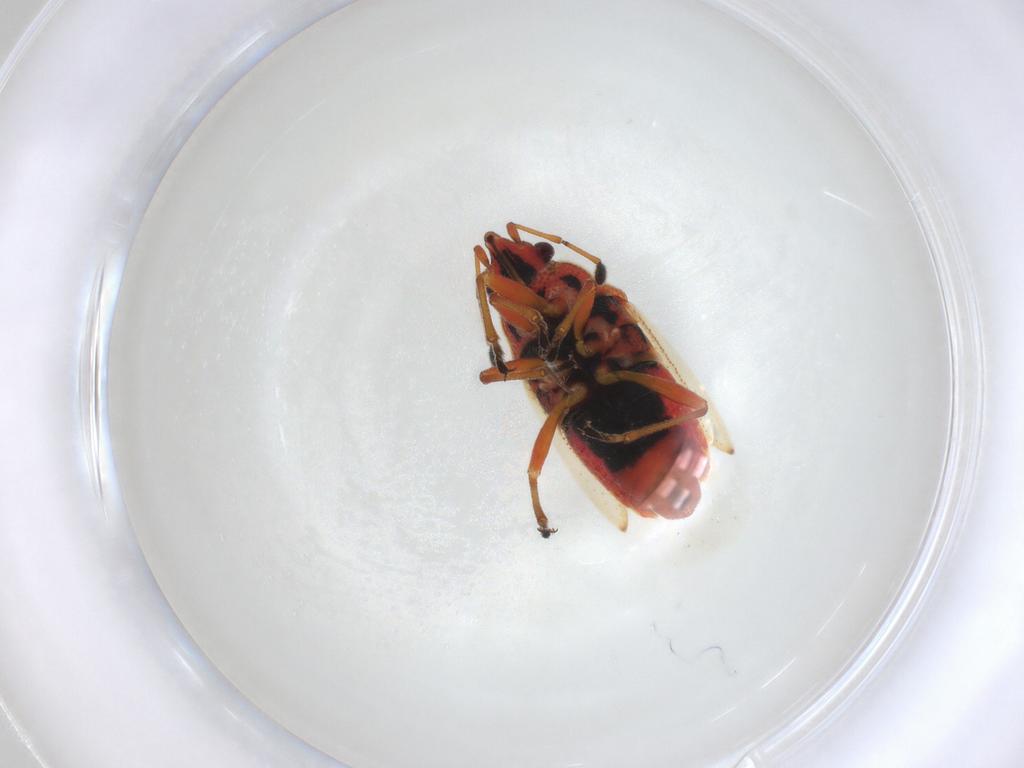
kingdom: Animalia
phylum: Arthropoda
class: Insecta
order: Hemiptera
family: Lygaeidae
